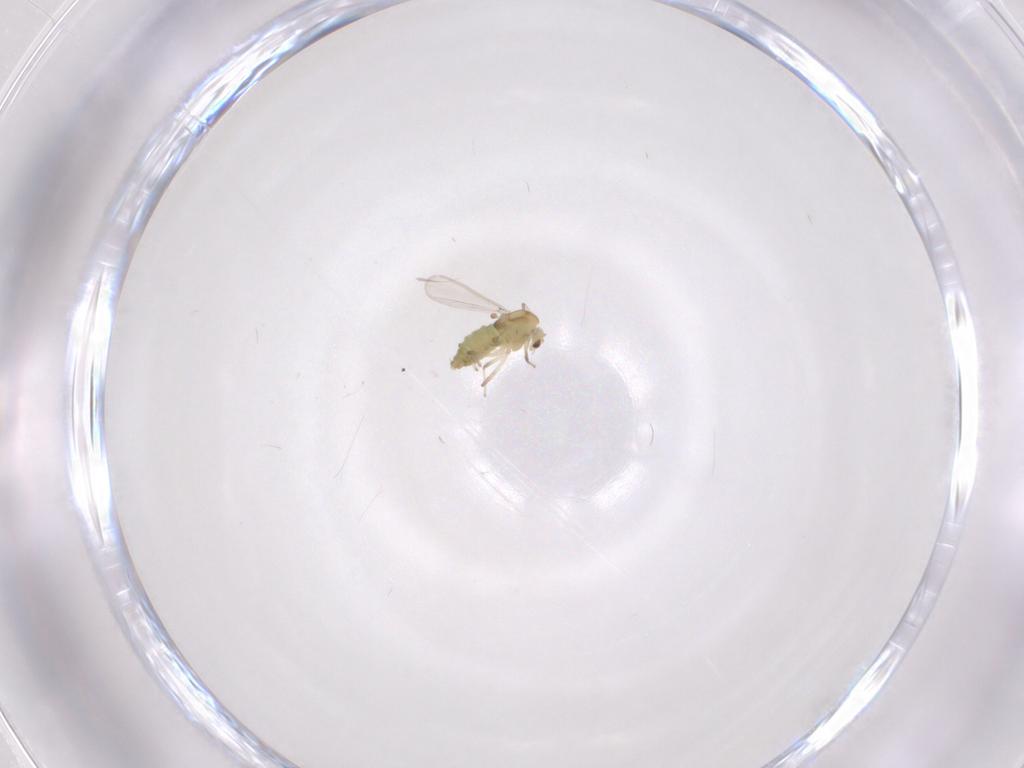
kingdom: Animalia
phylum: Arthropoda
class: Insecta
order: Diptera
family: Chironomidae
